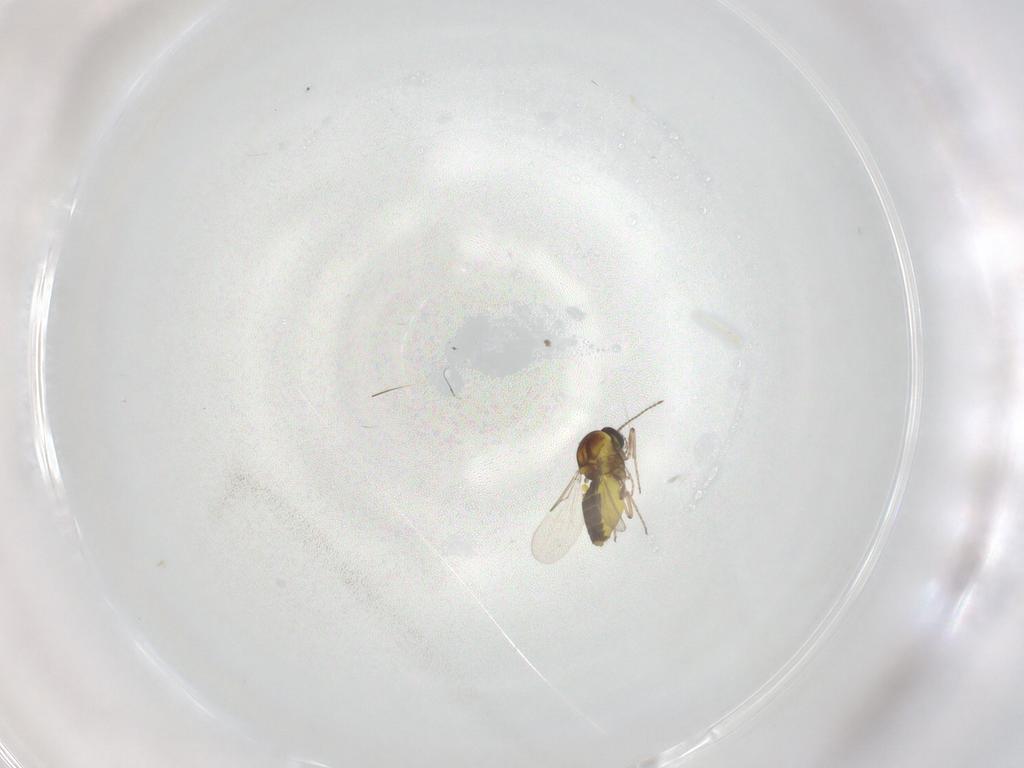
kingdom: Animalia
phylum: Arthropoda
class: Insecta
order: Diptera
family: Ceratopogonidae
